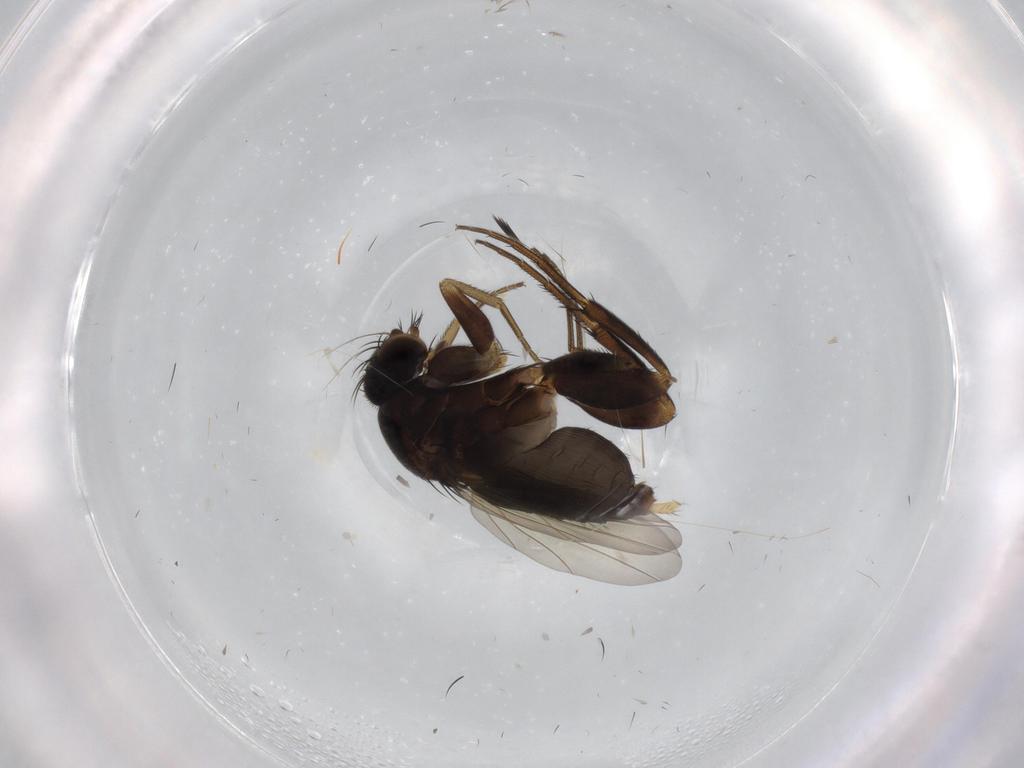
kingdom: Animalia
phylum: Arthropoda
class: Insecta
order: Diptera
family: Phoridae
